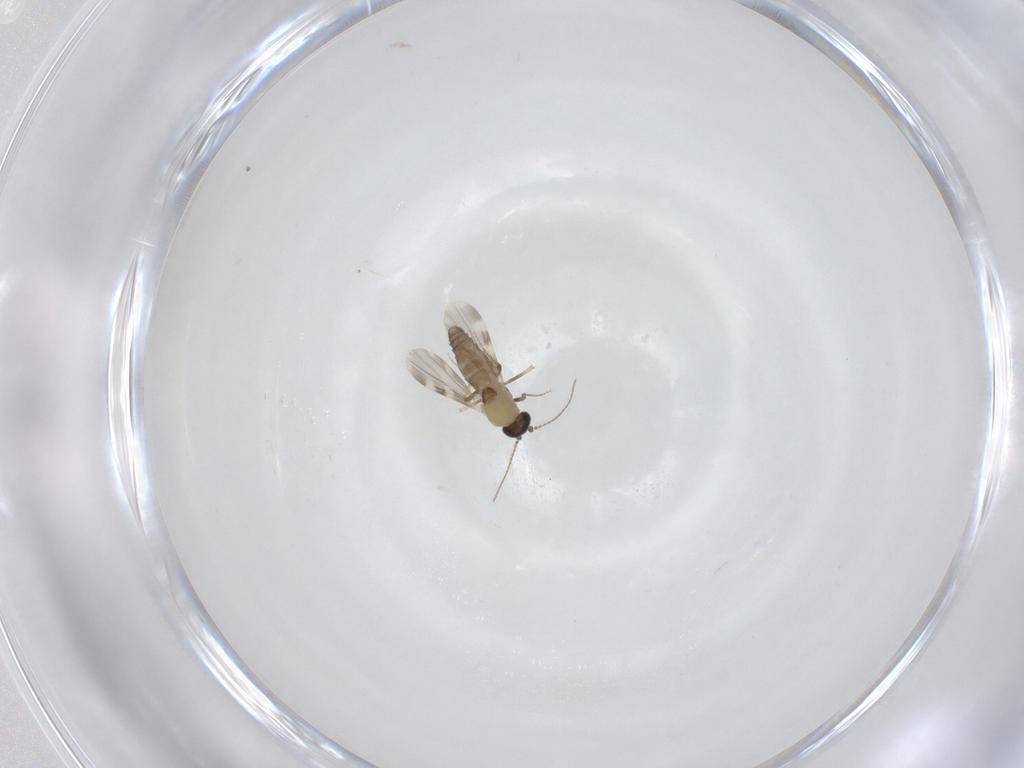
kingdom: Animalia
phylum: Arthropoda
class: Insecta
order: Diptera
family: Ceratopogonidae
